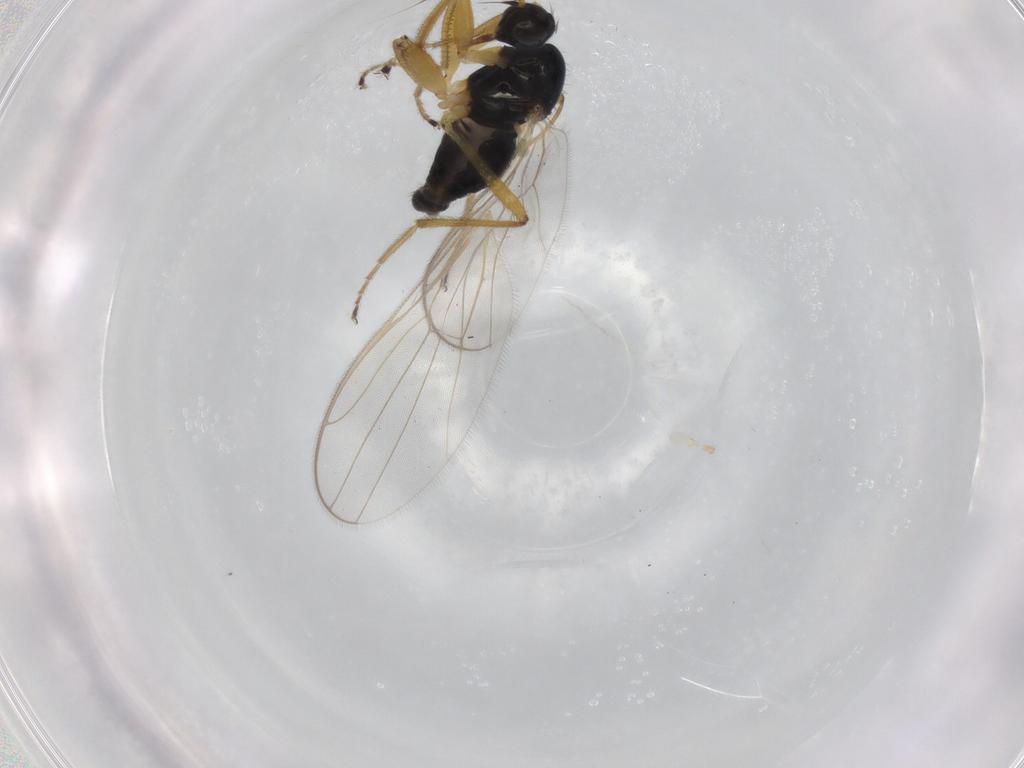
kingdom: Animalia
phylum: Arthropoda
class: Insecta
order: Diptera
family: Hybotidae
